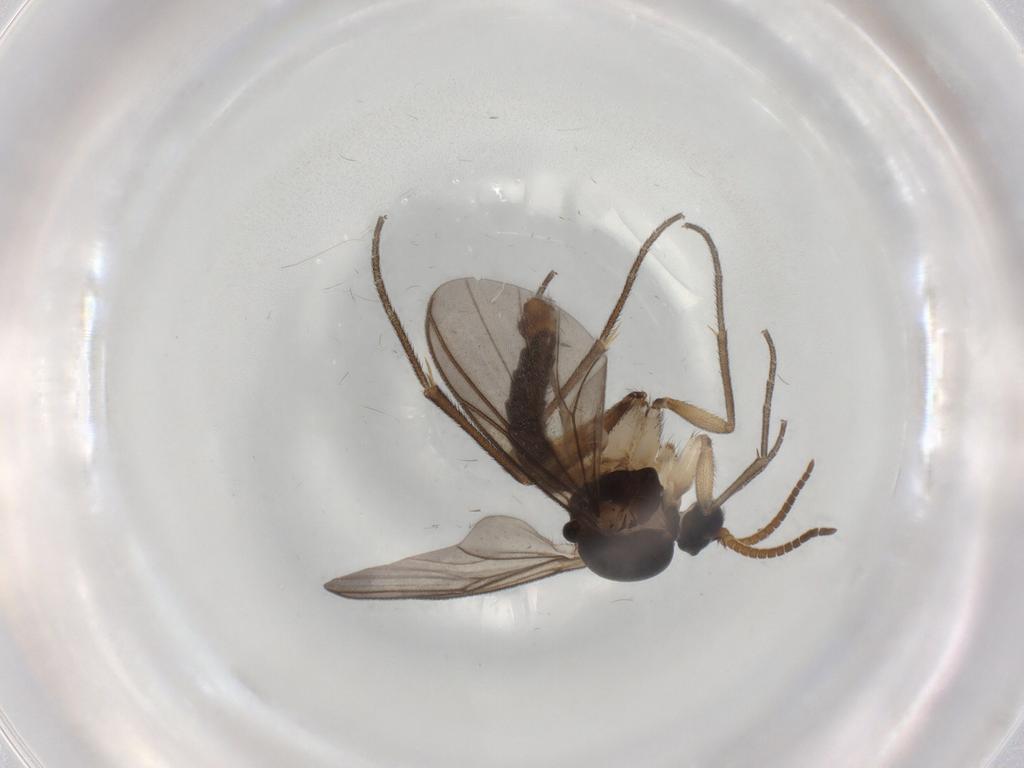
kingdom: Animalia
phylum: Arthropoda
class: Insecta
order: Diptera
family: Mycetophilidae
